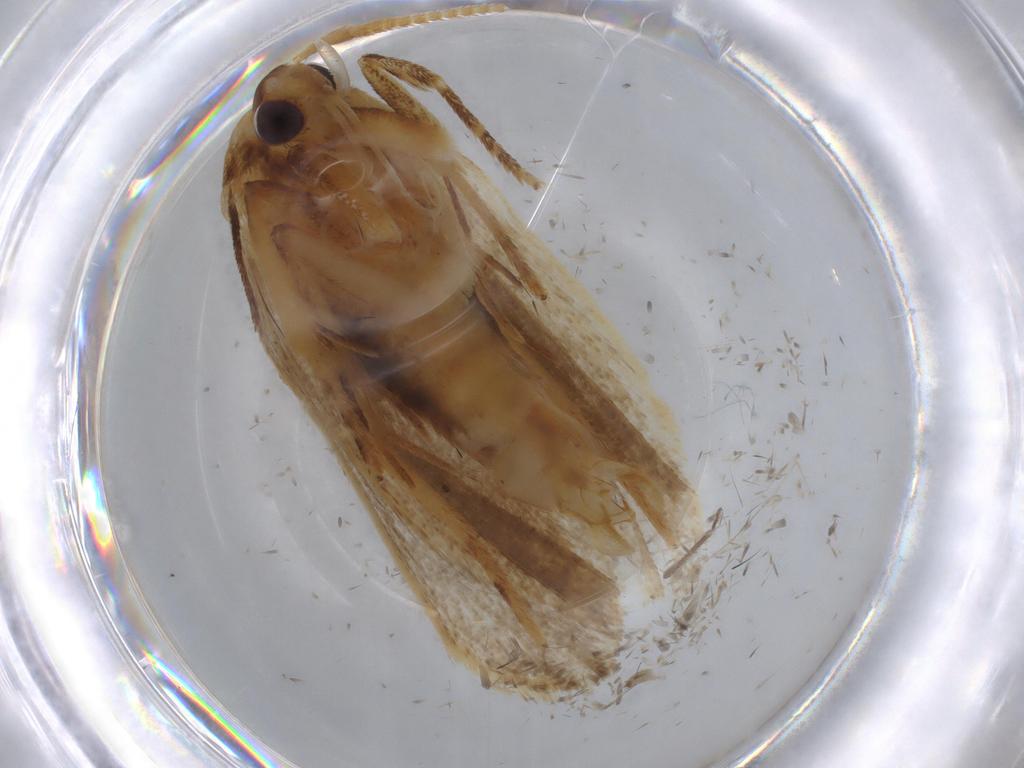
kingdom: Animalia
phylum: Arthropoda
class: Insecta
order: Lepidoptera
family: Lecithoceridae
